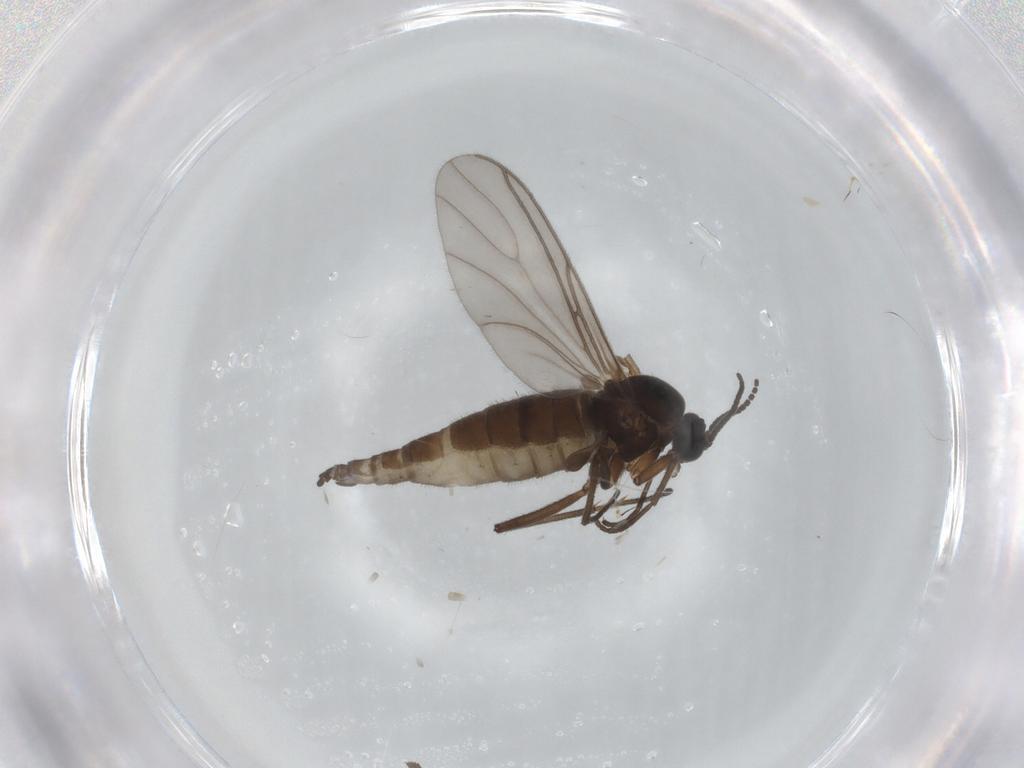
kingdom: Animalia
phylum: Arthropoda
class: Insecta
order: Diptera
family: Sciaridae
